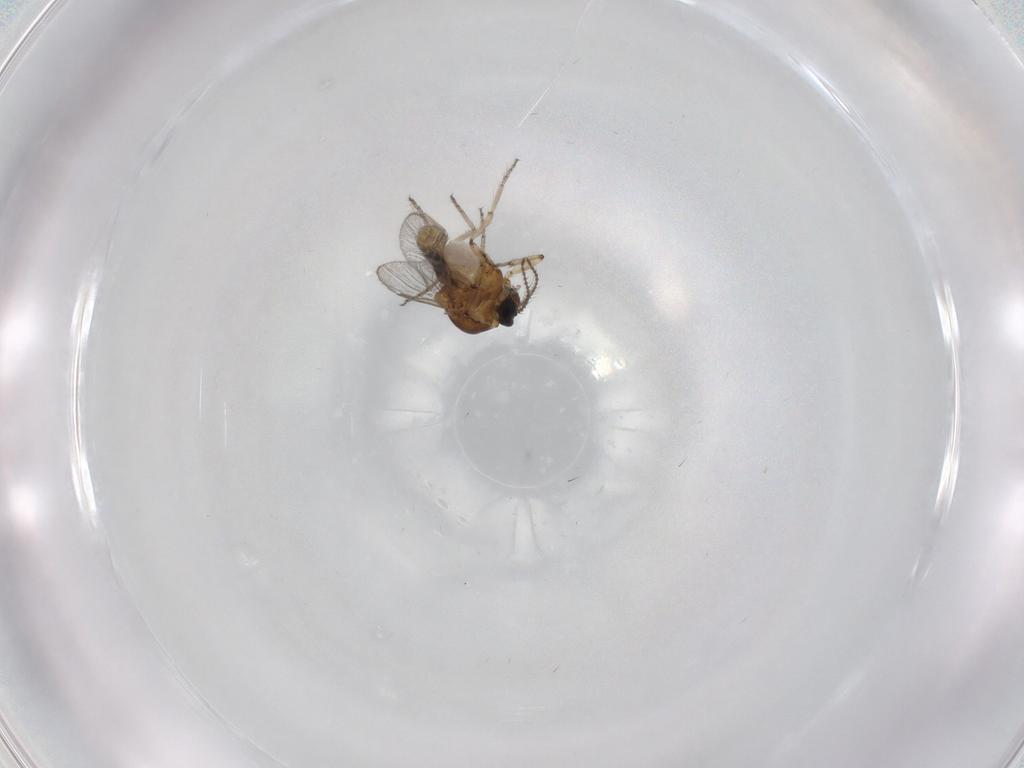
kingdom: Animalia
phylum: Arthropoda
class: Insecta
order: Diptera
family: Ceratopogonidae
